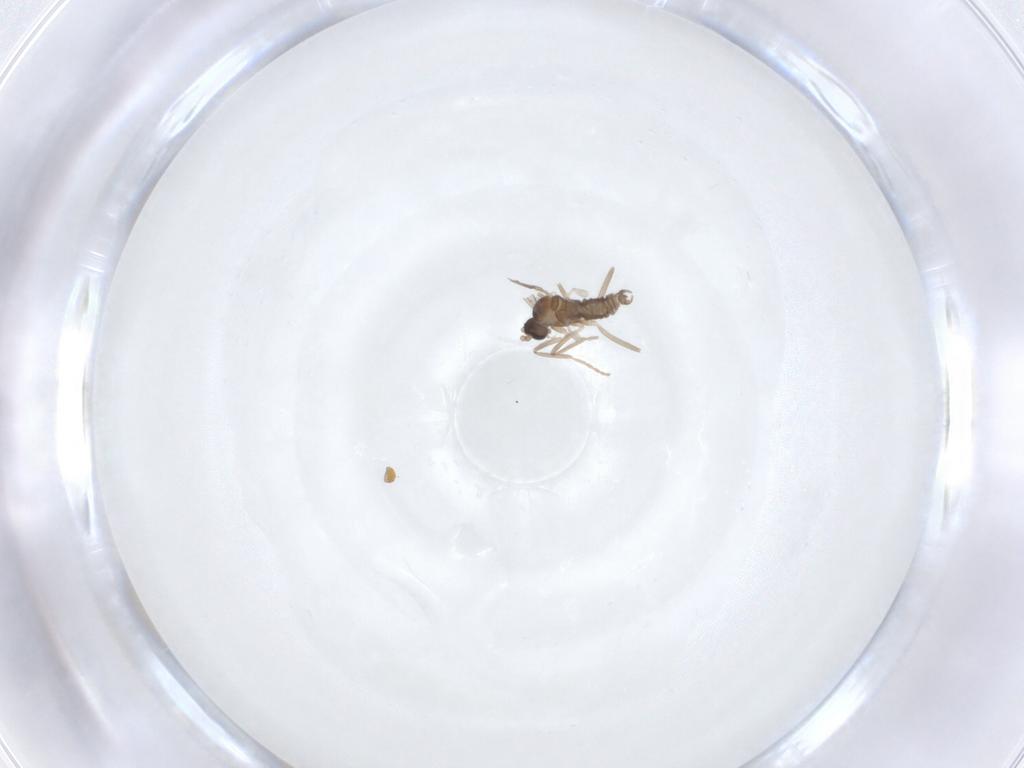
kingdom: Animalia
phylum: Arthropoda
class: Insecta
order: Diptera
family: Cecidomyiidae
